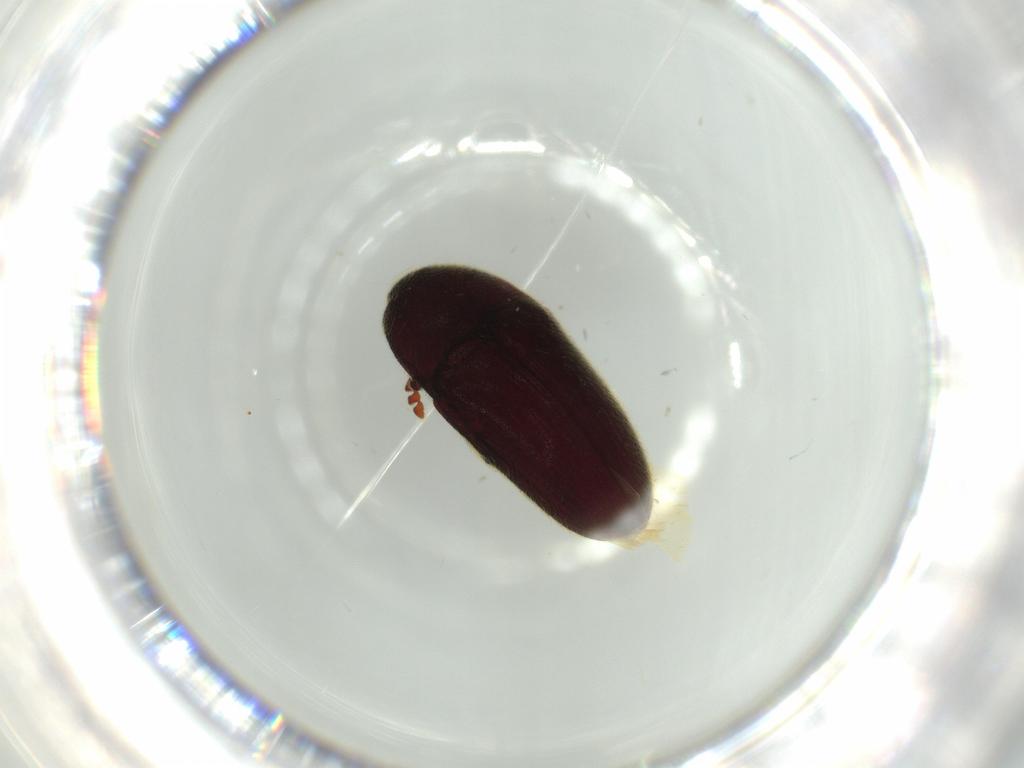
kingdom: Animalia
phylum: Arthropoda
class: Insecta
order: Coleoptera
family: Throscidae
